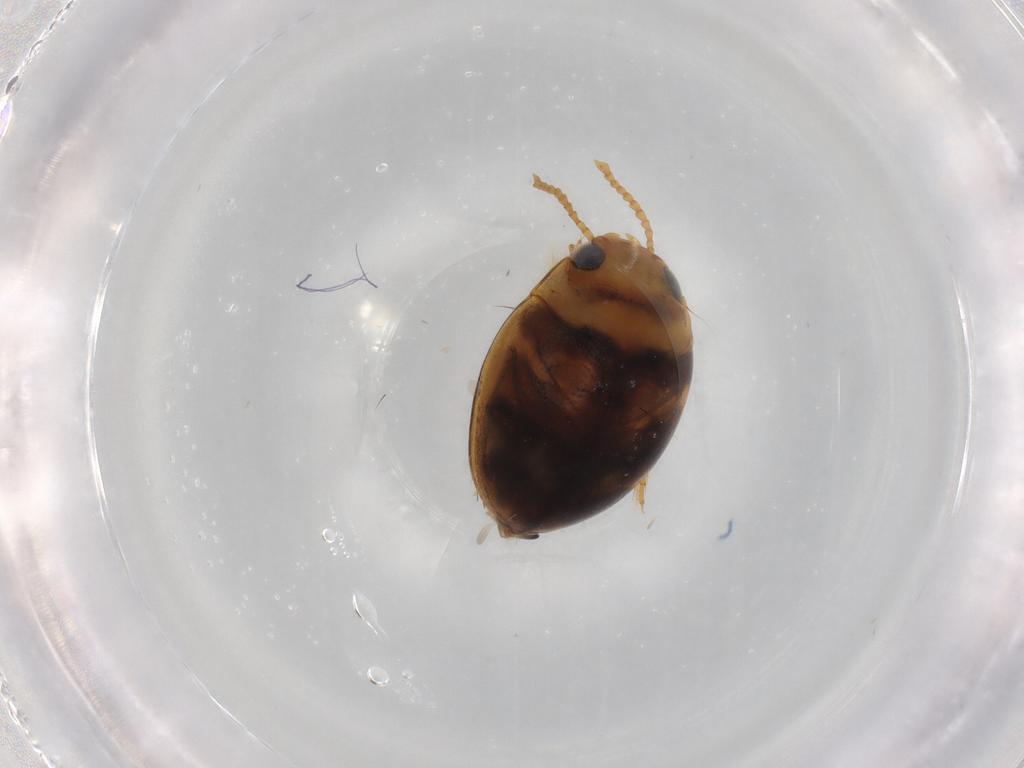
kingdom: Animalia
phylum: Arthropoda
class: Insecta
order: Coleoptera
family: Dytiscidae
